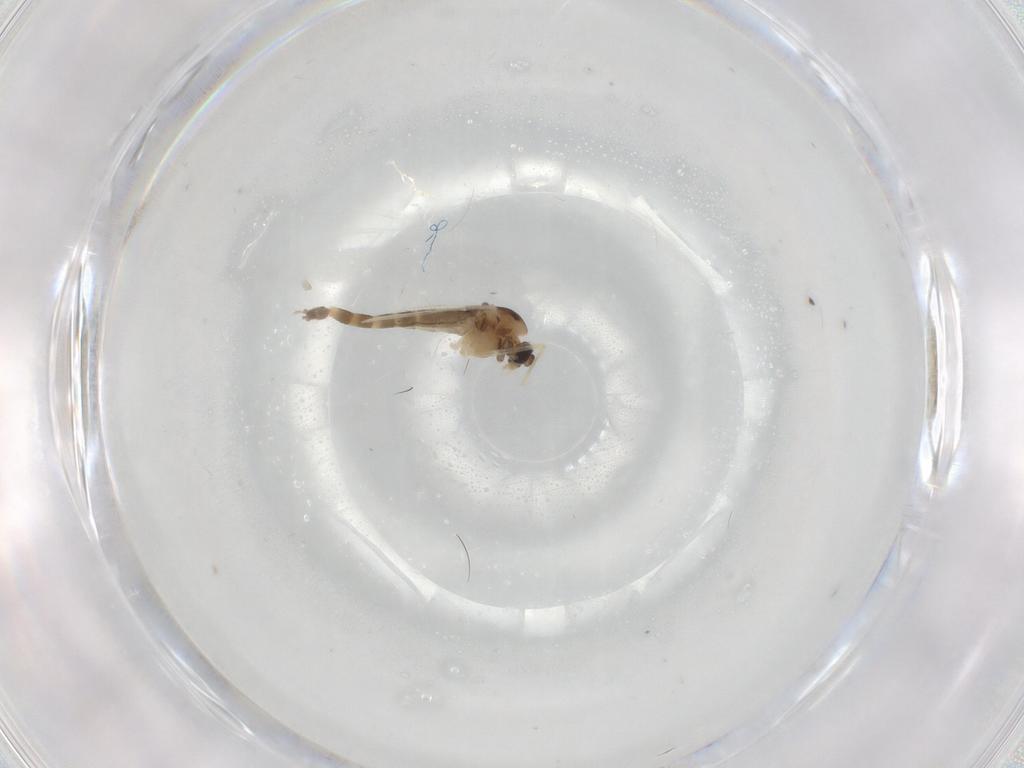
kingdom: Animalia
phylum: Arthropoda
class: Insecta
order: Diptera
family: Chironomidae
